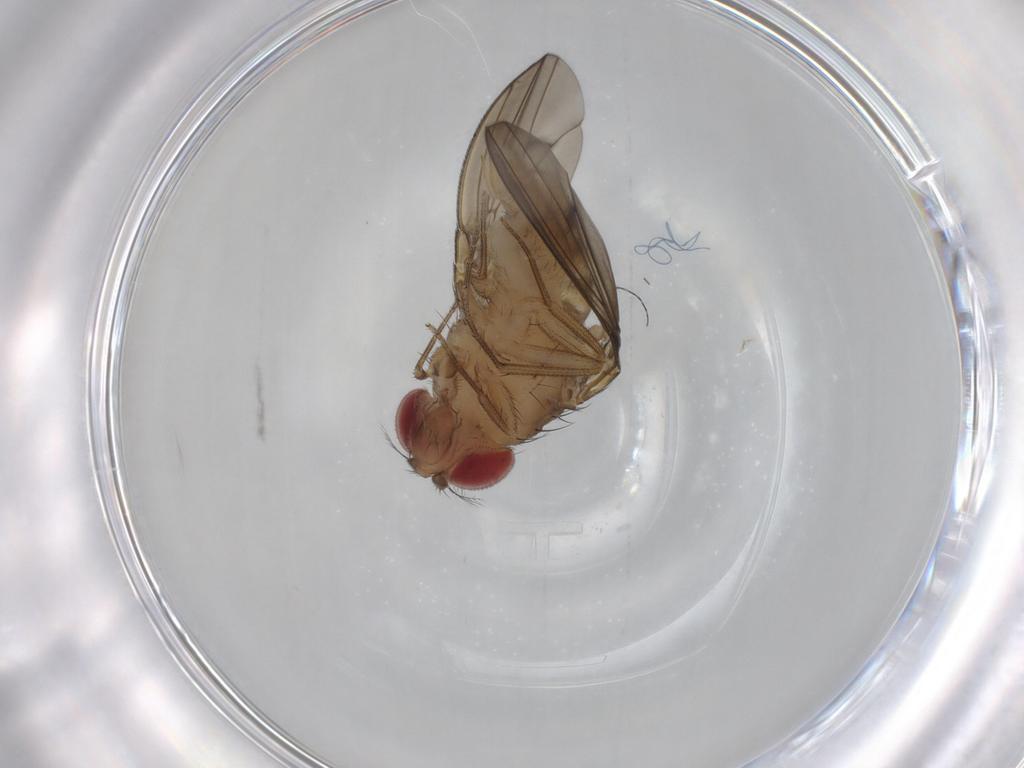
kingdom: Animalia
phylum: Arthropoda
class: Insecta
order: Diptera
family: Drosophilidae
